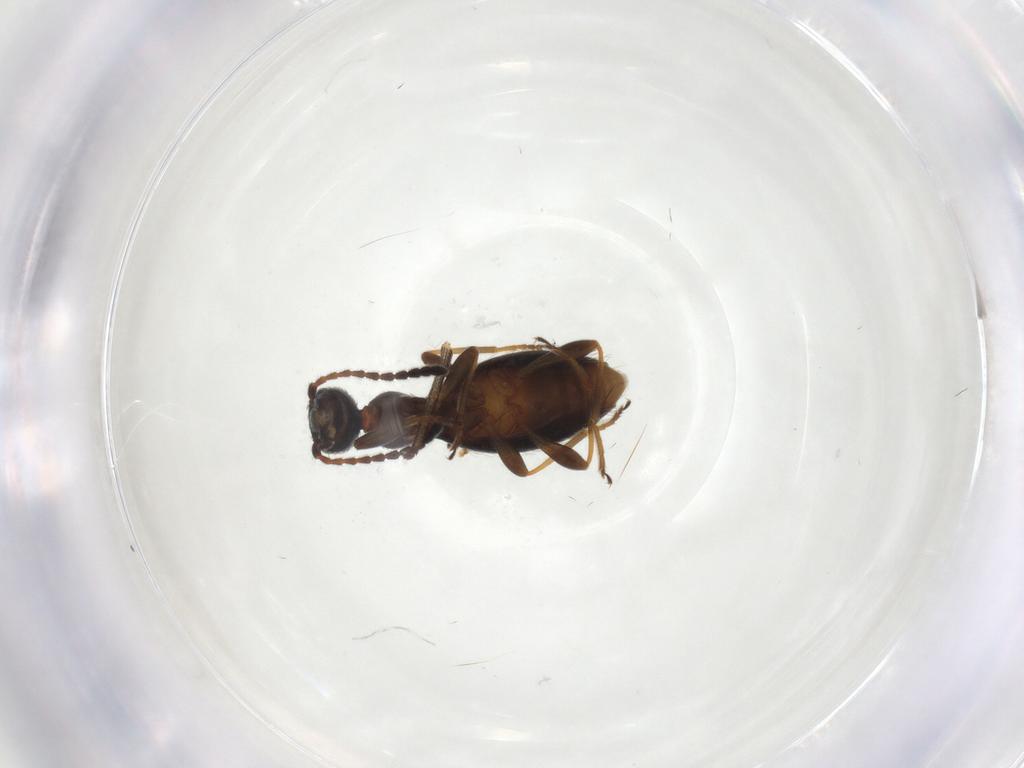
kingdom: Animalia
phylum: Arthropoda
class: Insecta
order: Coleoptera
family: Anthicidae
